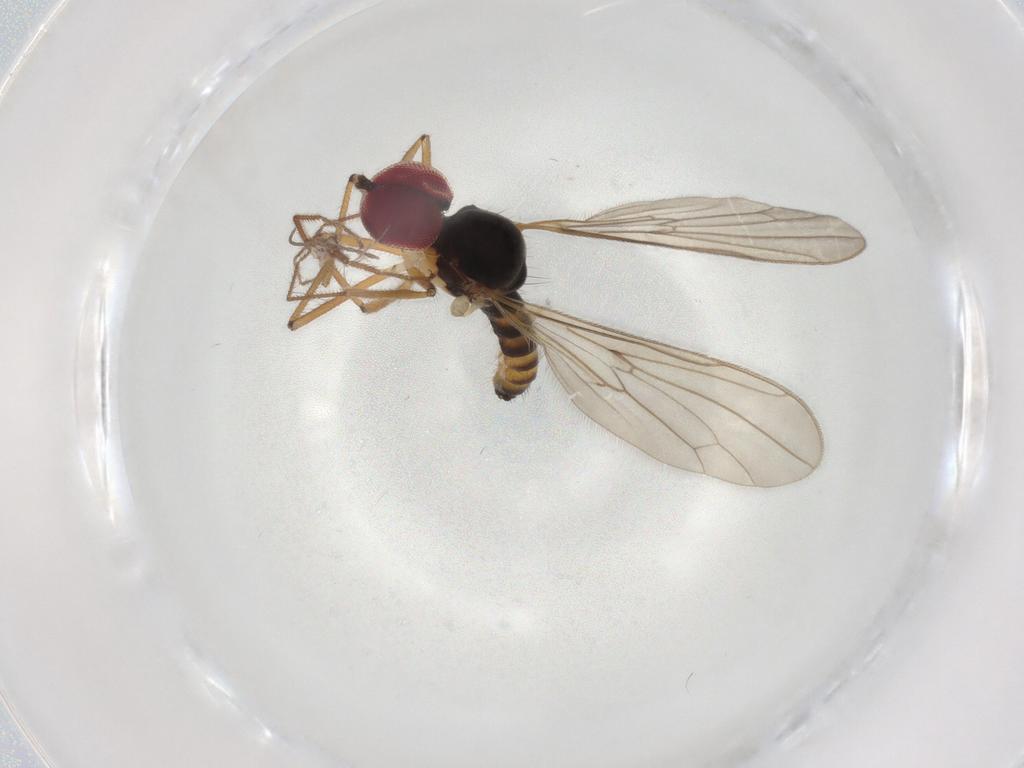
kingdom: Animalia
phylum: Arthropoda
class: Insecta
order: Diptera
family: Hybotidae
